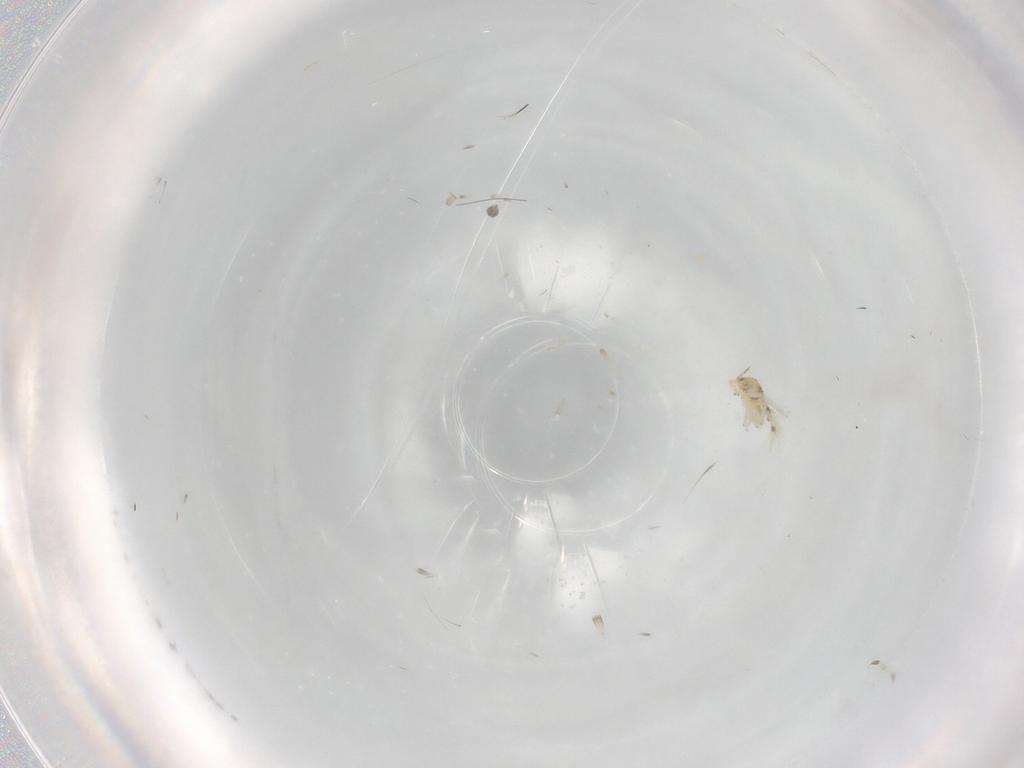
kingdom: Animalia
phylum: Arthropoda
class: Insecta
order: Thysanoptera
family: Thripidae
